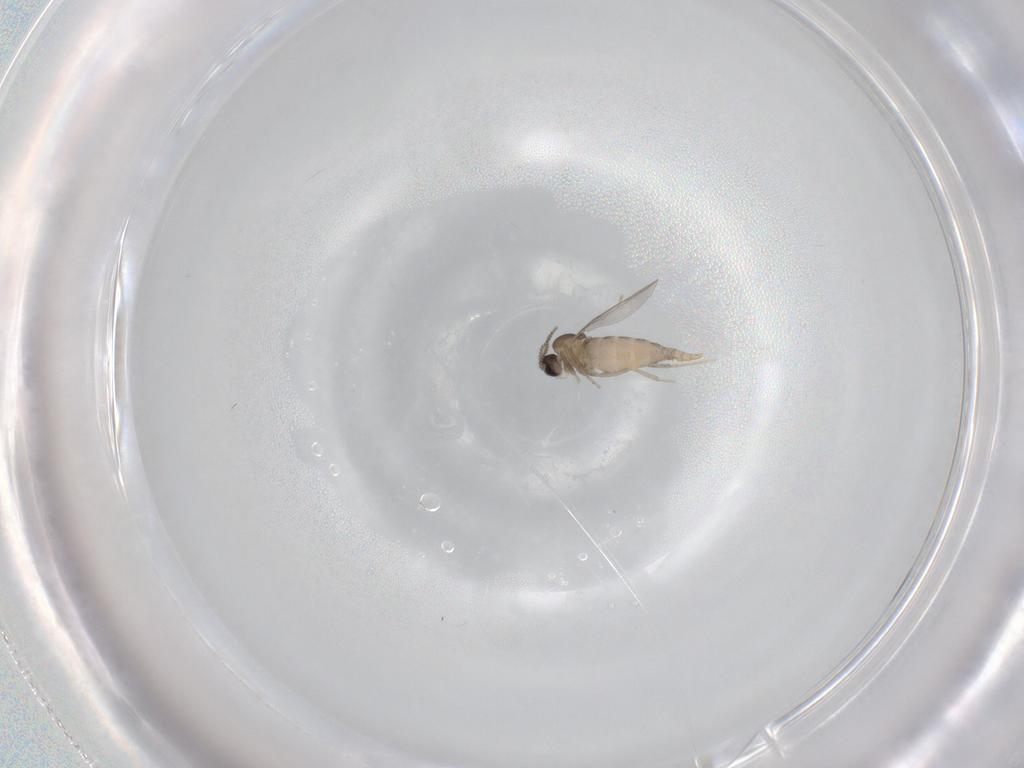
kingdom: Animalia
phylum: Arthropoda
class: Insecta
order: Diptera
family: Cecidomyiidae
